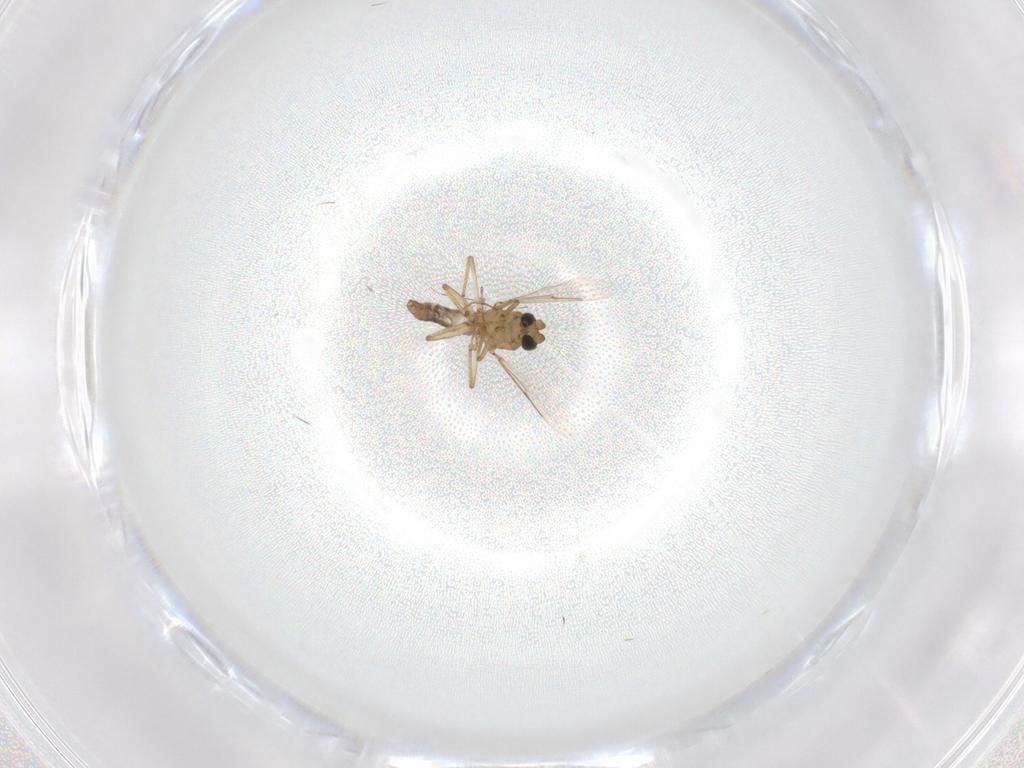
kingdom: Animalia
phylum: Arthropoda
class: Insecta
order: Diptera
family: Ceratopogonidae
